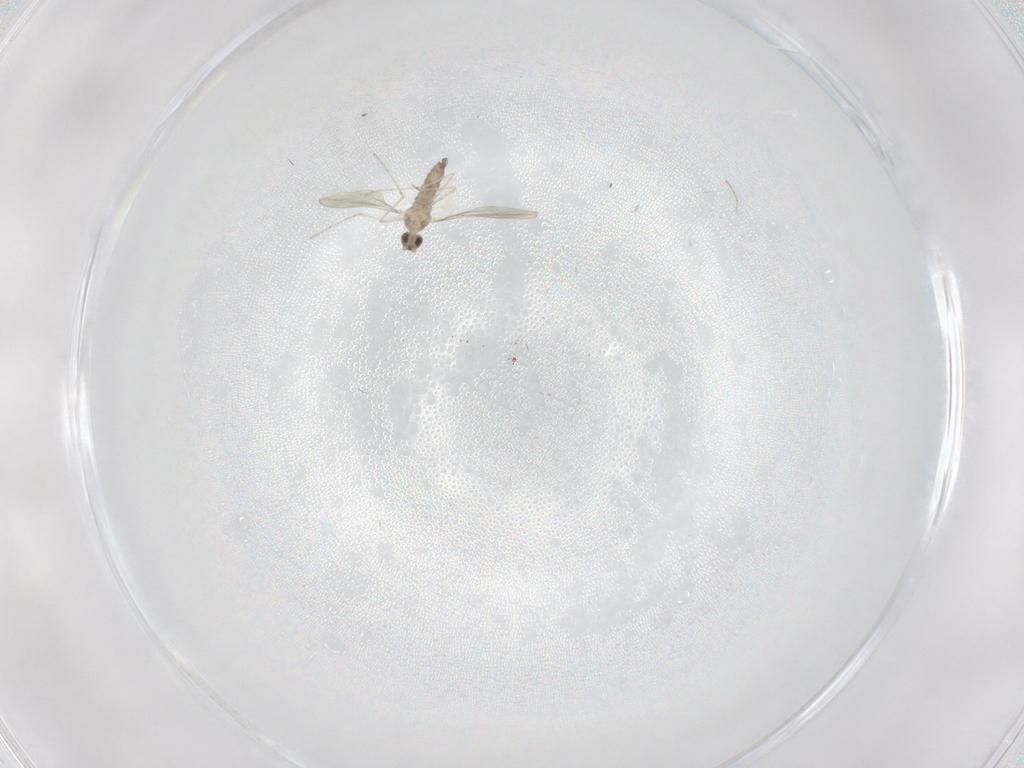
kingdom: Animalia
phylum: Arthropoda
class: Insecta
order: Diptera
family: Cecidomyiidae
